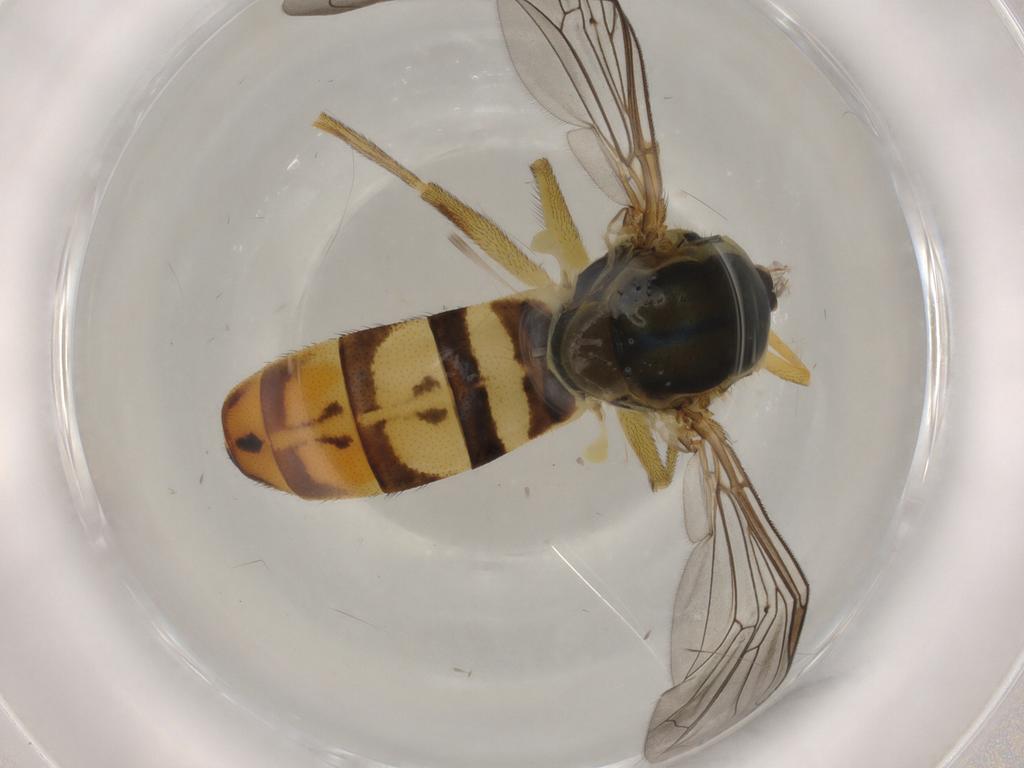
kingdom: Animalia
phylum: Arthropoda
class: Insecta
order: Diptera
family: Syrphidae
